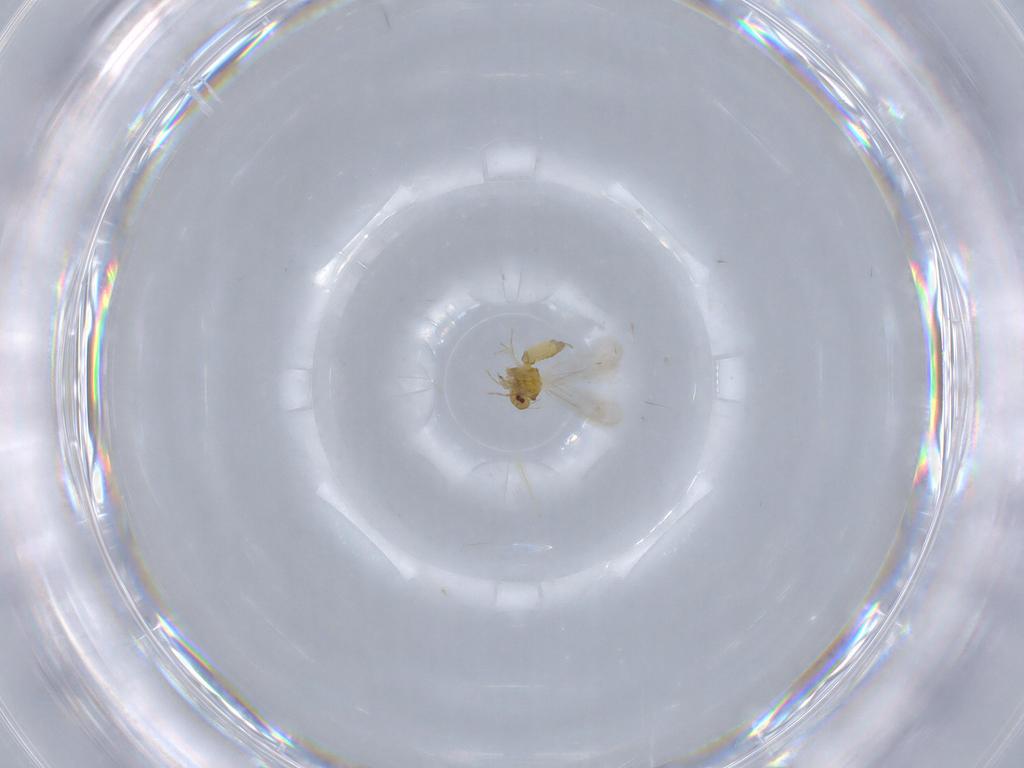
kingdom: Animalia
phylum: Arthropoda
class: Insecta
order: Hemiptera
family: Aleyrodidae
